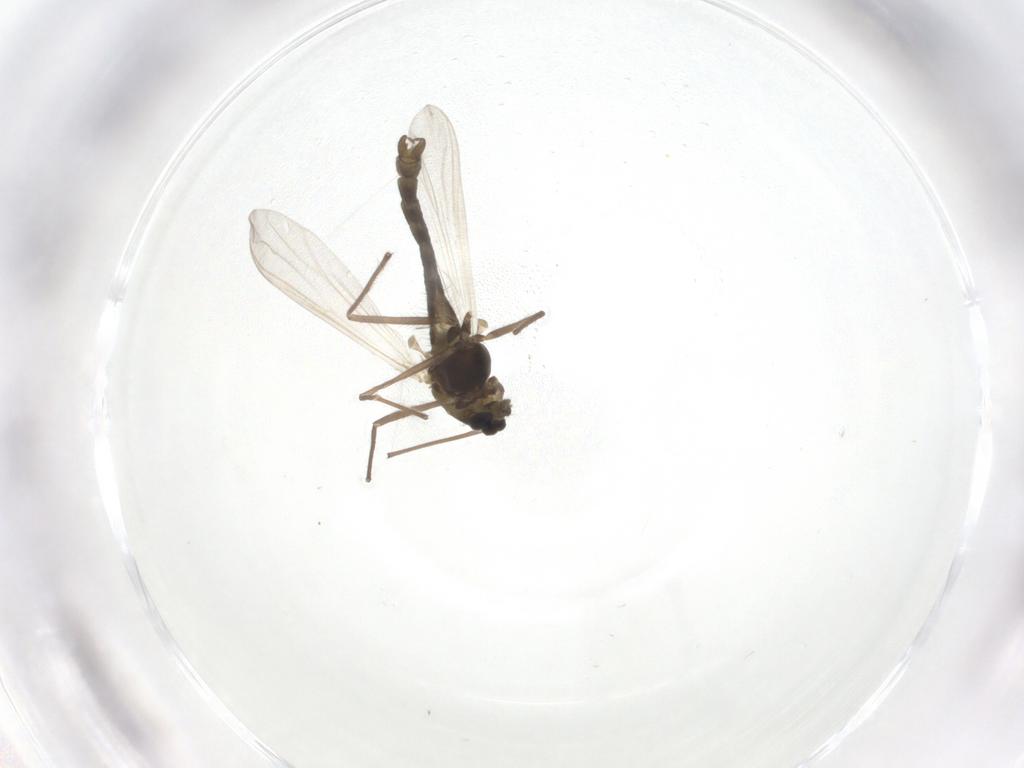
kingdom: Animalia
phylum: Arthropoda
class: Insecta
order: Diptera
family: Chironomidae
